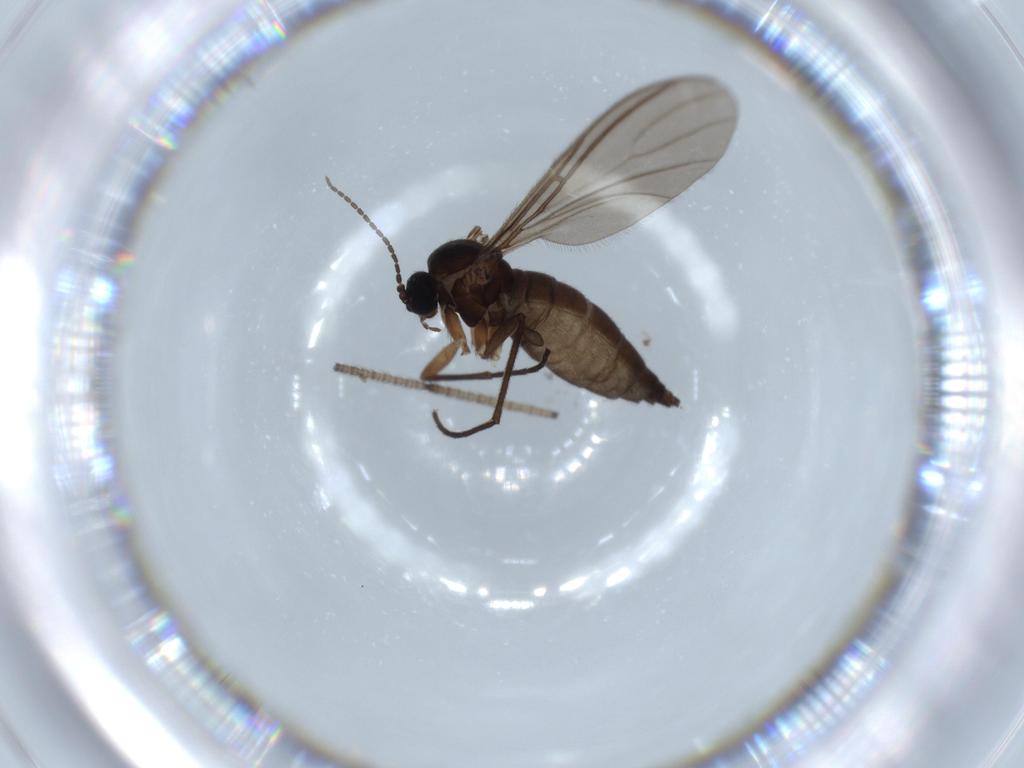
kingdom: Animalia
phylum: Arthropoda
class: Insecta
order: Diptera
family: Sciaridae
